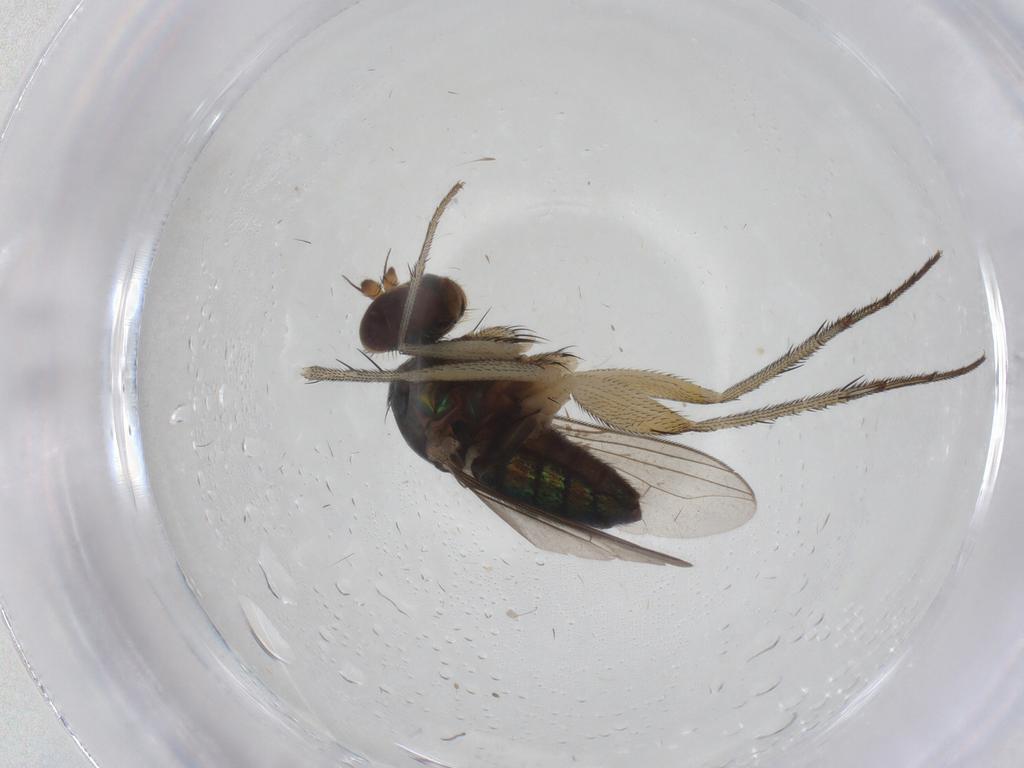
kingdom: Animalia
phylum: Arthropoda
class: Insecta
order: Diptera
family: Dolichopodidae
